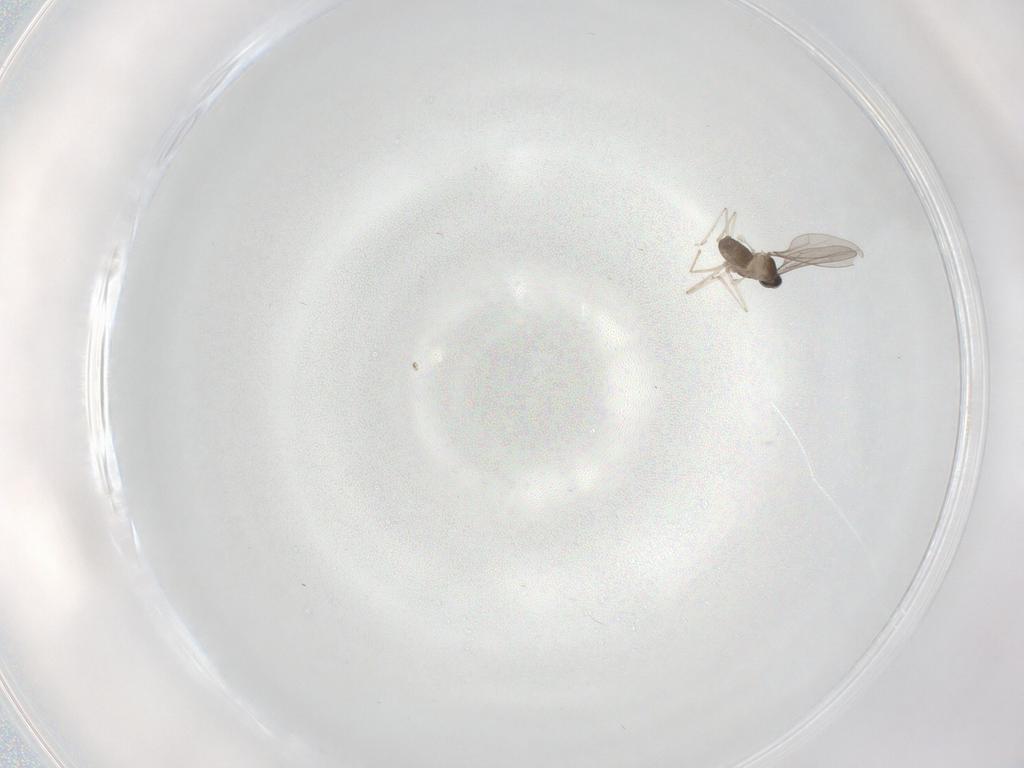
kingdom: Animalia
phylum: Arthropoda
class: Insecta
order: Diptera
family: Cecidomyiidae
